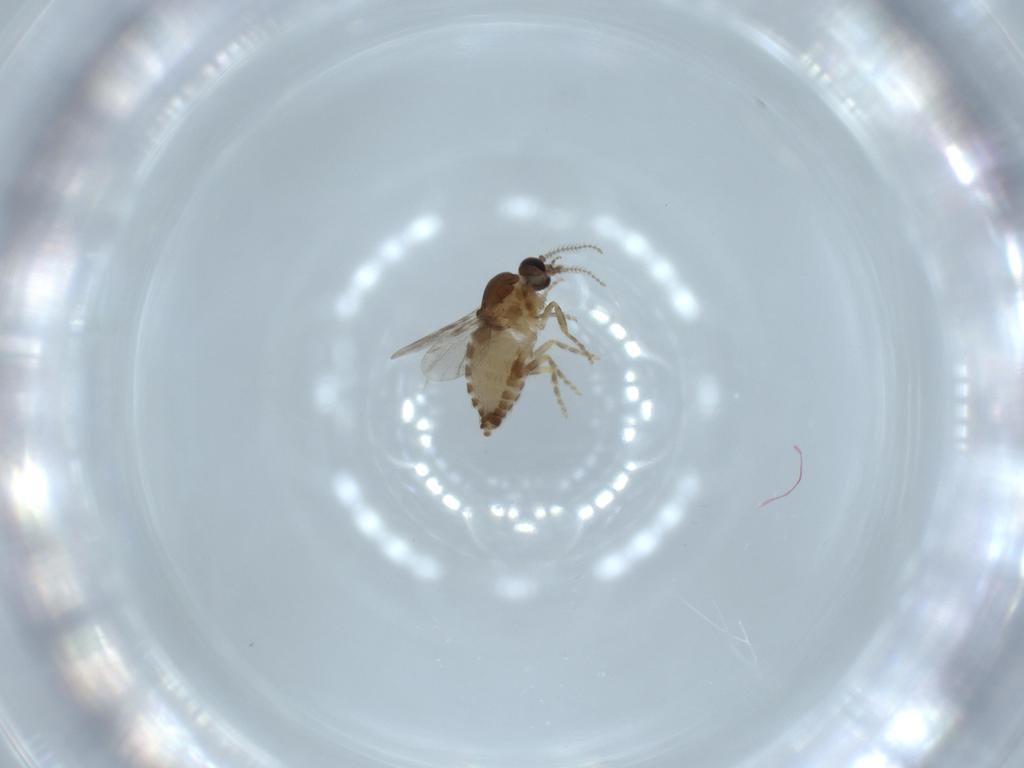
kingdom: Animalia
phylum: Arthropoda
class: Insecta
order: Diptera
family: Ceratopogonidae
